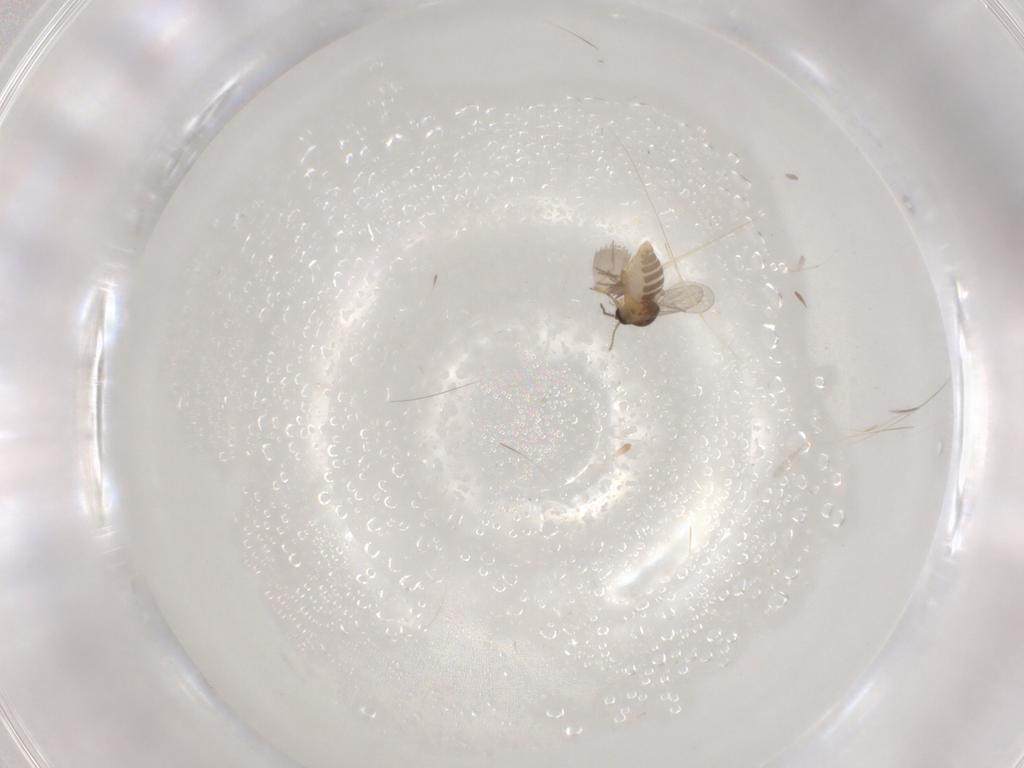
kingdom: Animalia
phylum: Arthropoda
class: Insecta
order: Diptera
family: Ceratopogonidae
